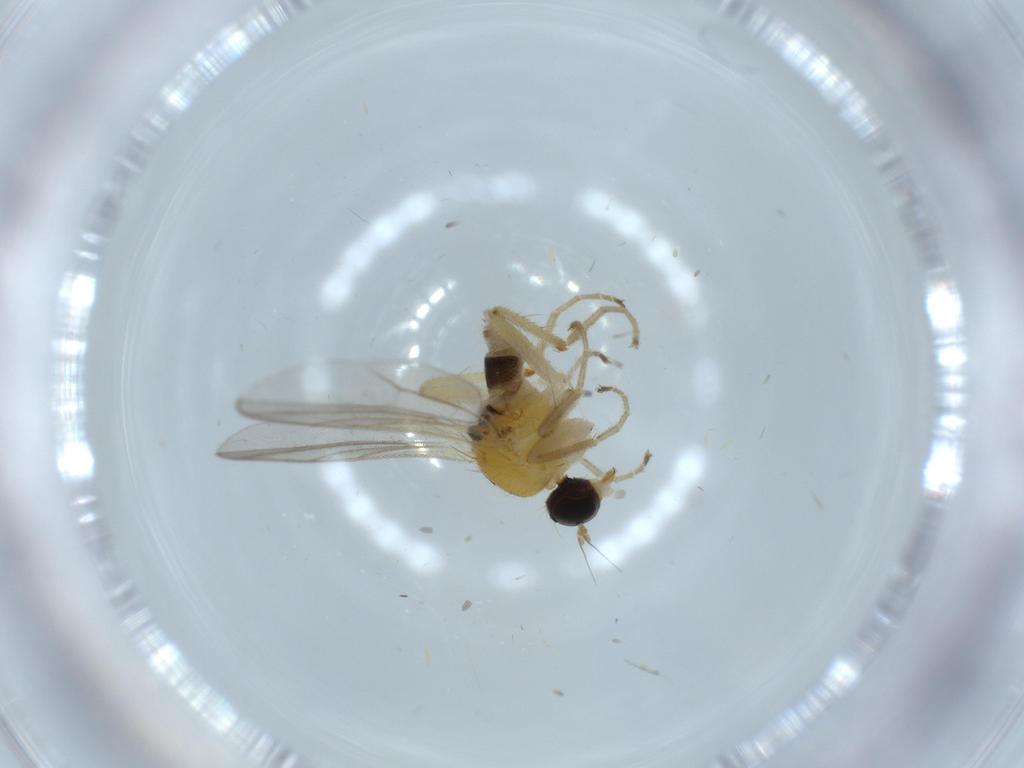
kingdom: Animalia
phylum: Arthropoda
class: Insecta
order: Diptera
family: Hybotidae
